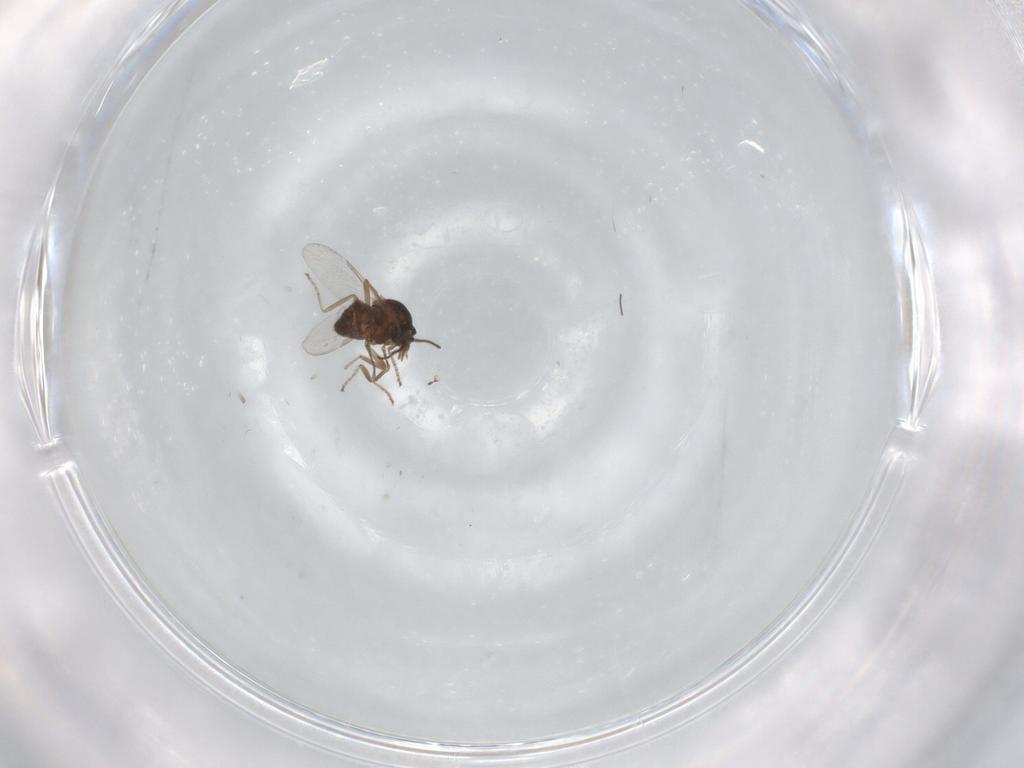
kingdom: Animalia
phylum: Arthropoda
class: Insecta
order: Diptera
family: Ceratopogonidae
